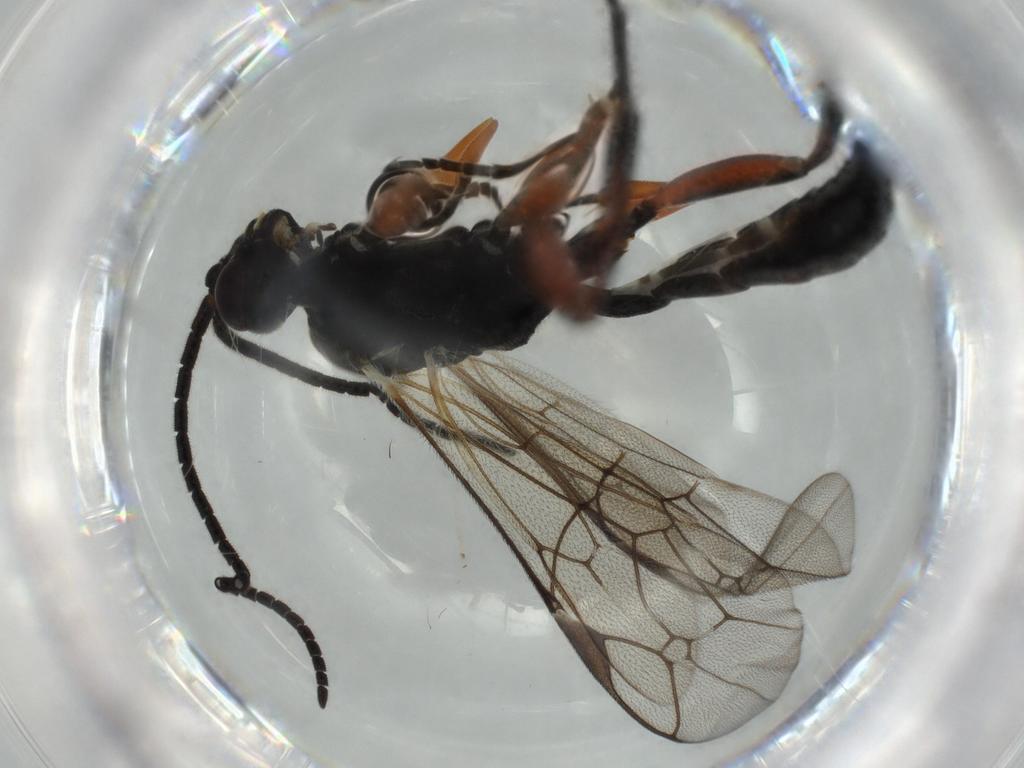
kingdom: Animalia
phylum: Arthropoda
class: Insecta
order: Hymenoptera
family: Ichneumonidae
